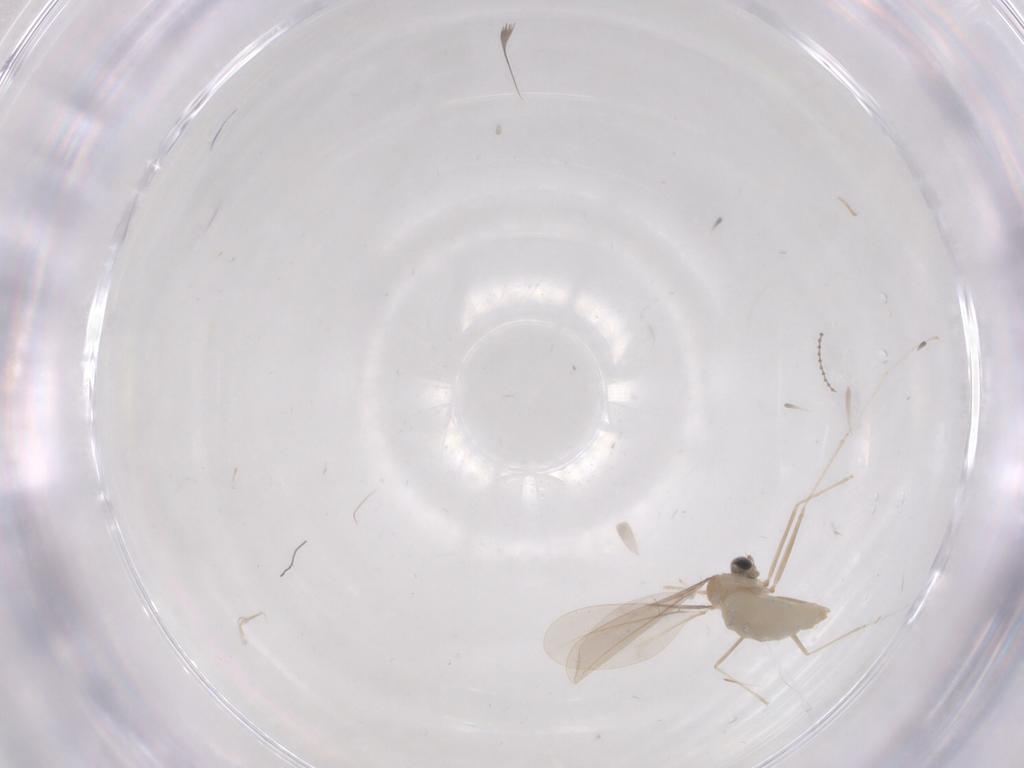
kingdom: Animalia
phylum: Arthropoda
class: Insecta
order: Diptera
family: Cecidomyiidae
